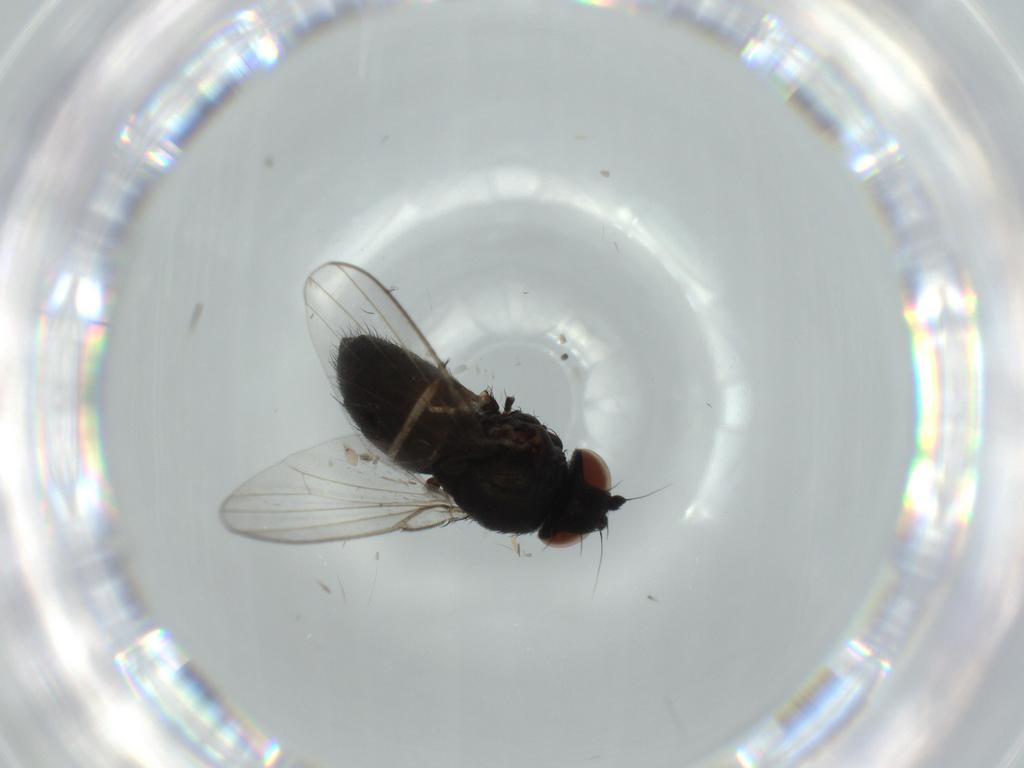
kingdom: Animalia
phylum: Arthropoda
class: Insecta
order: Diptera
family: Milichiidae
